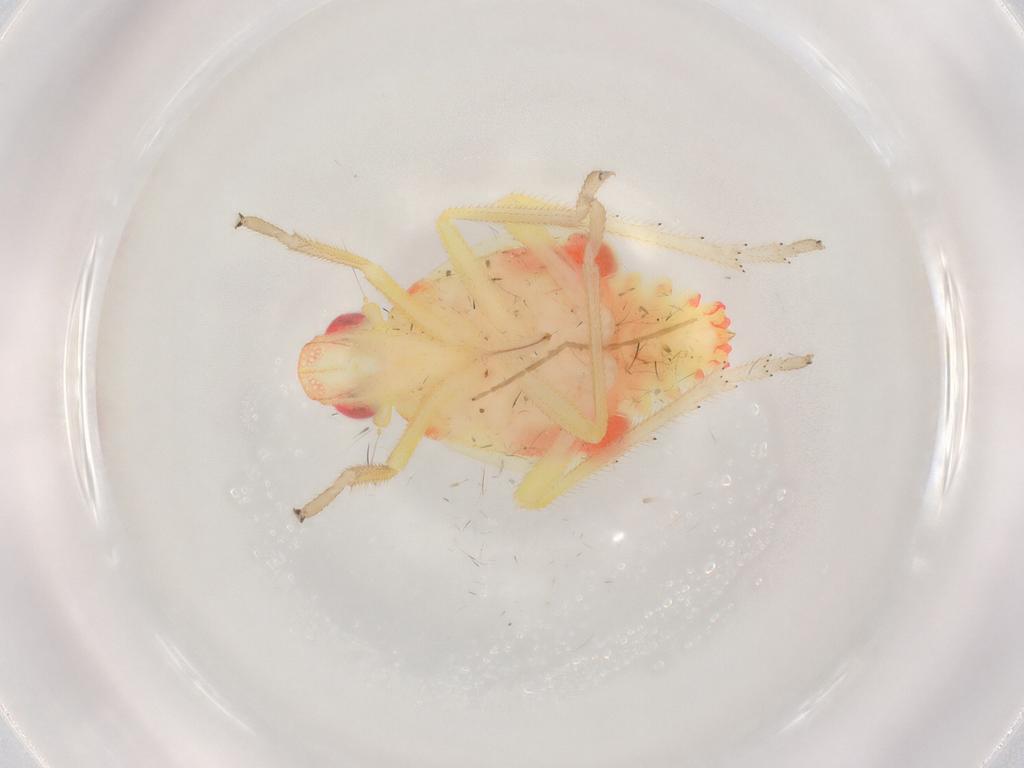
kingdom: Animalia
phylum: Arthropoda
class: Insecta
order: Hemiptera
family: Tropiduchidae
